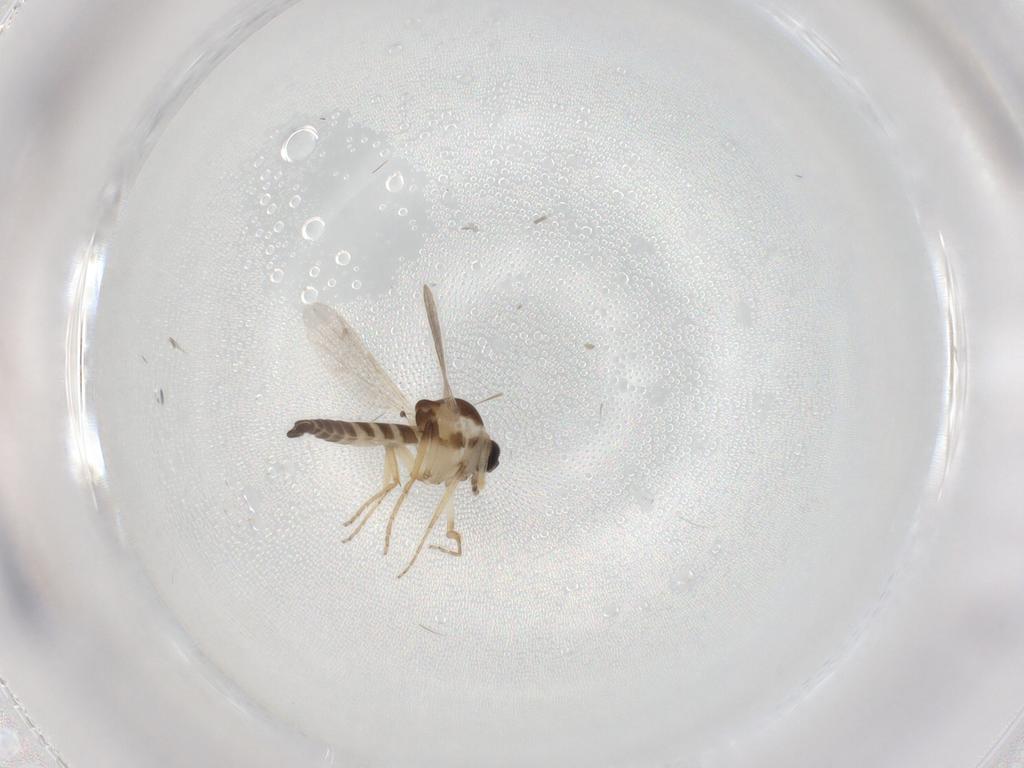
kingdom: Animalia
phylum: Arthropoda
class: Insecta
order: Diptera
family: Ceratopogonidae
